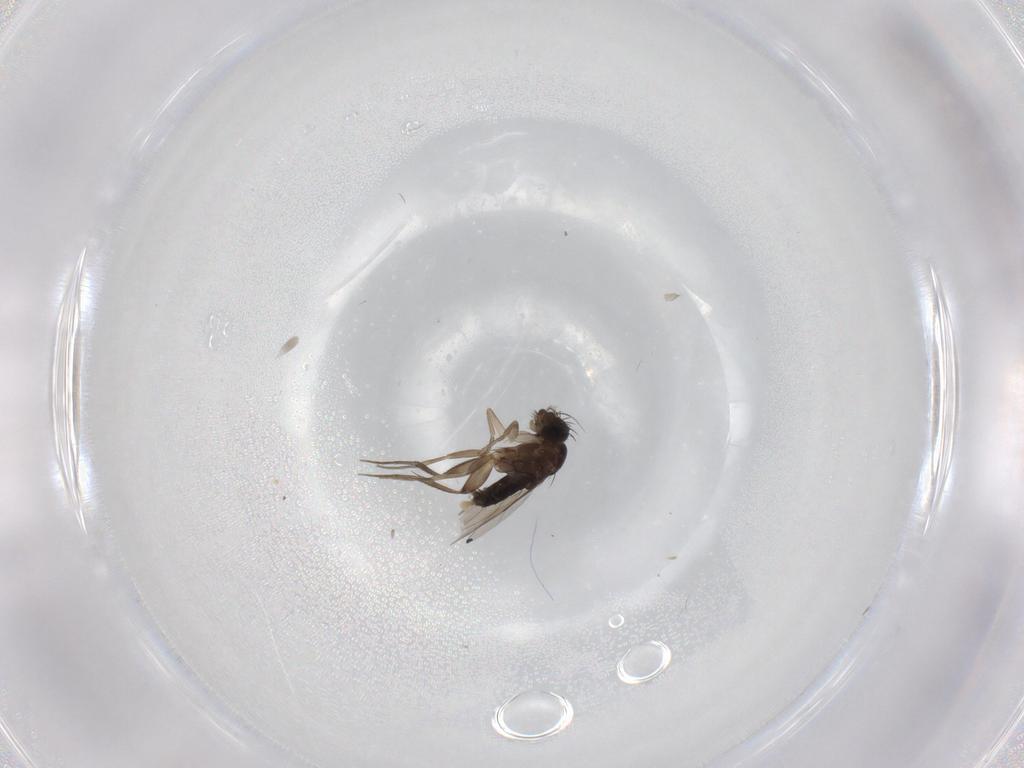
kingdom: Animalia
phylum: Arthropoda
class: Insecta
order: Diptera
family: Phoridae
